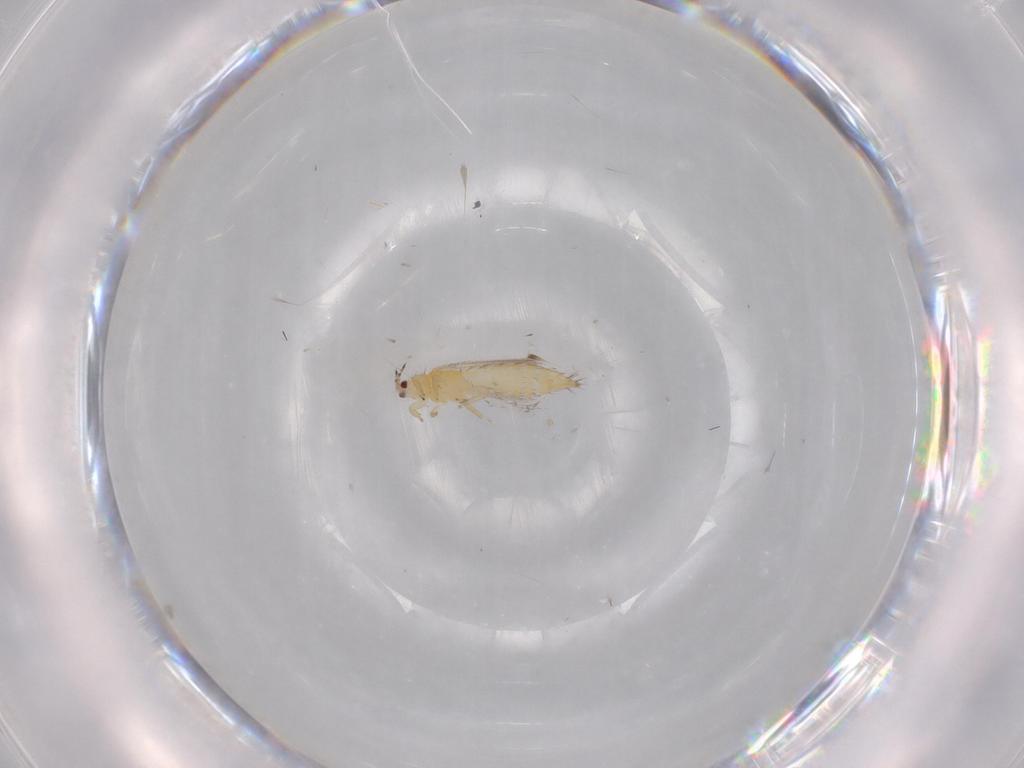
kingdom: Animalia
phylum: Arthropoda
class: Insecta
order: Thysanoptera
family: Thripidae
